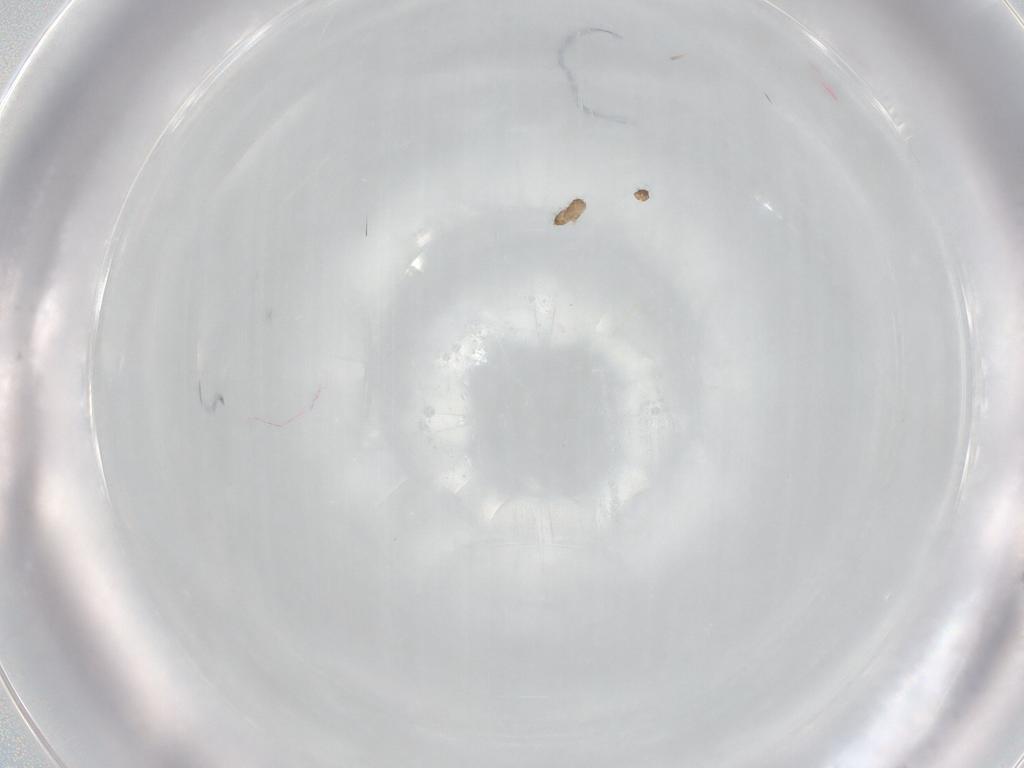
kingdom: Animalia
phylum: Arthropoda
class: Insecta
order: Hymenoptera
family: Mymaridae
